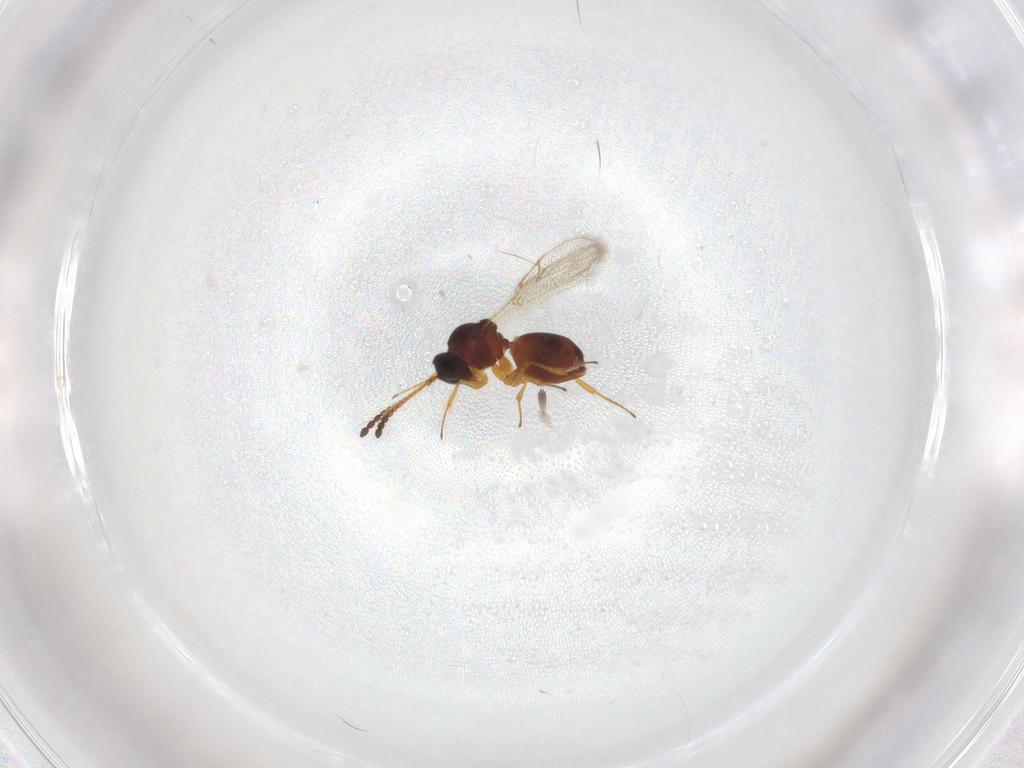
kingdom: Animalia
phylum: Arthropoda
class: Insecta
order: Hymenoptera
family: Figitidae
